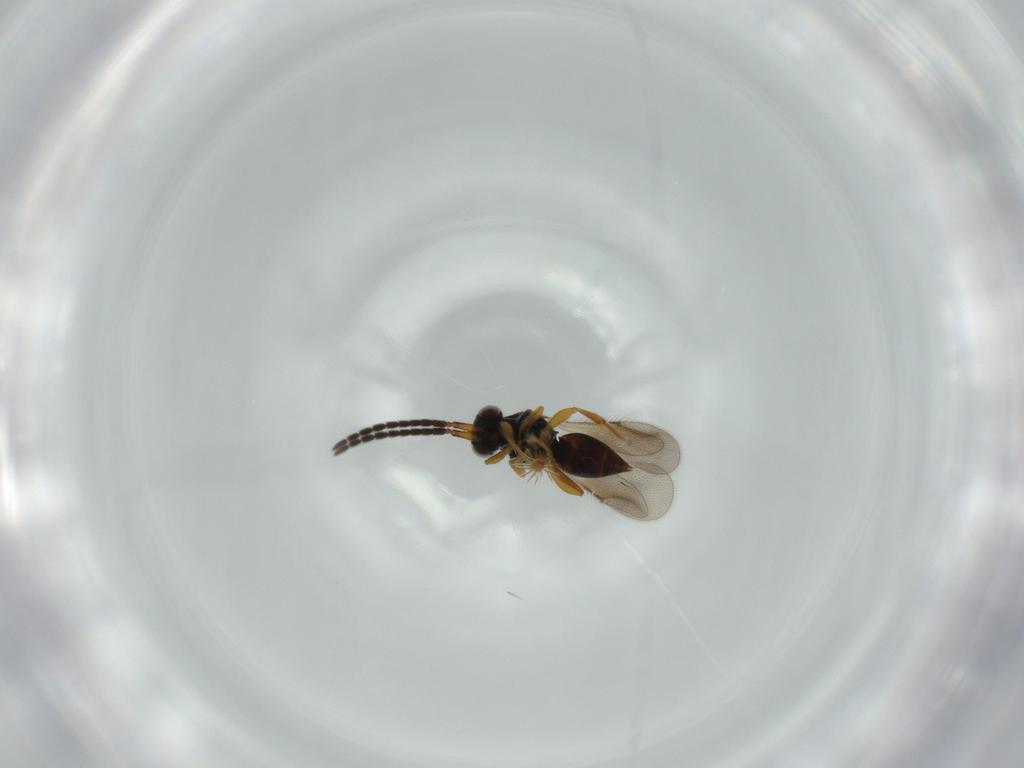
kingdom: Animalia
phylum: Arthropoda
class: Insecta
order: Hymenoptera
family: Ceraphronidae
